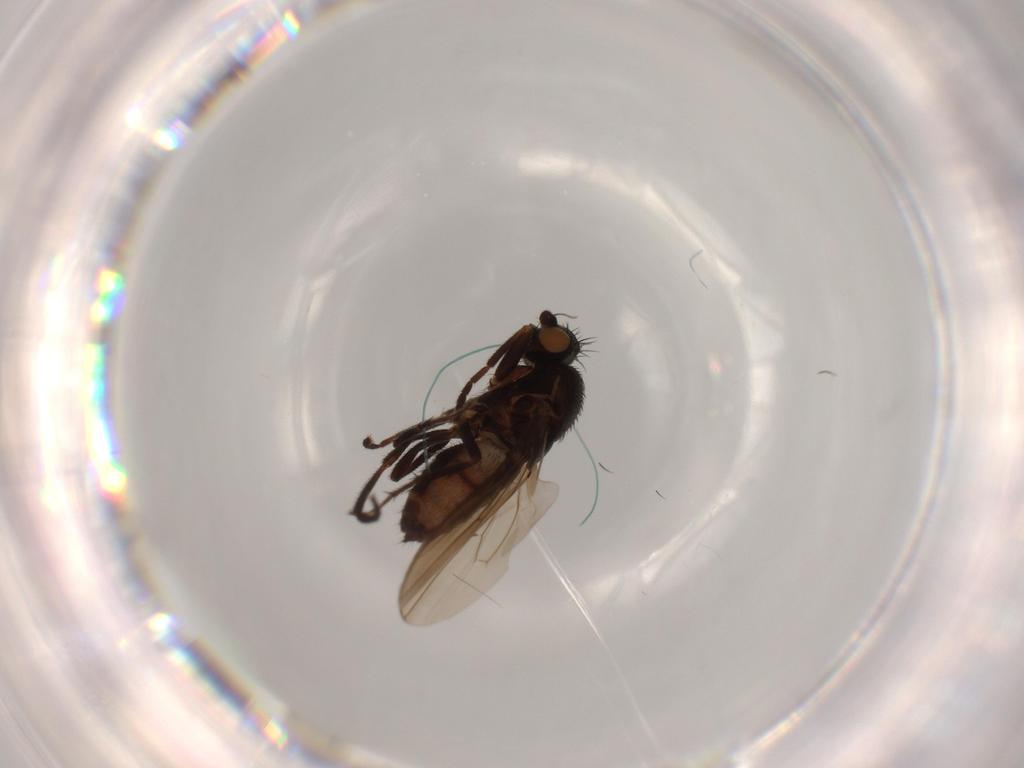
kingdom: Animalia
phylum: Arthropoda
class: Insecta
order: Diptera
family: Sphaeroceridae
